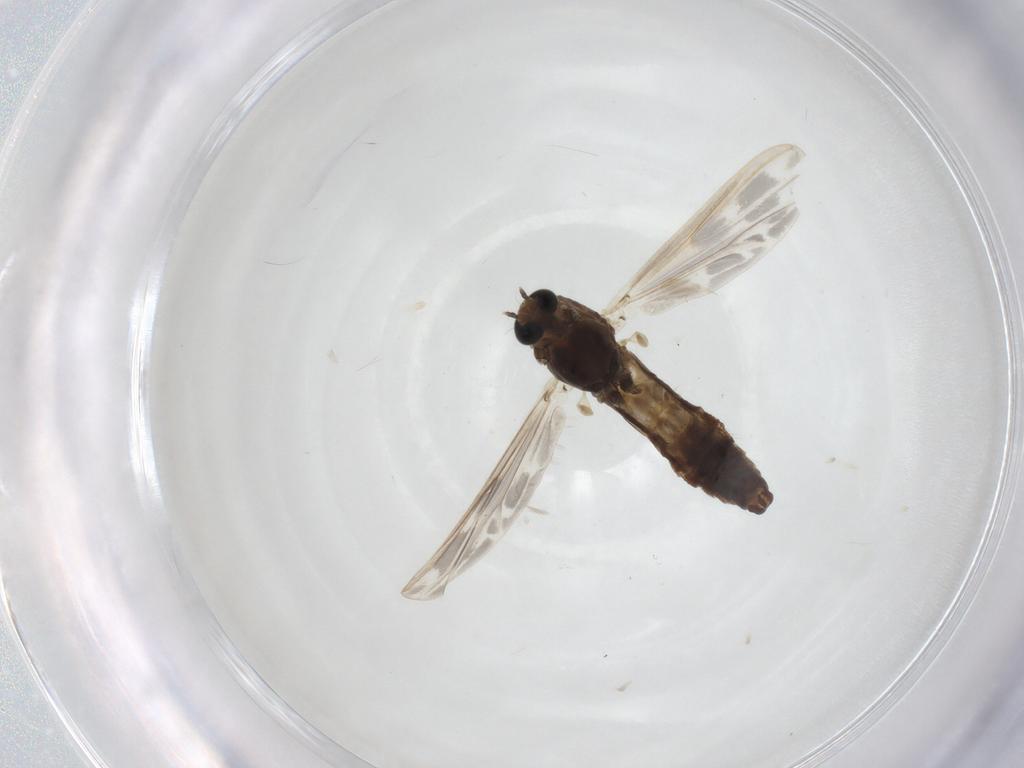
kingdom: Animalia
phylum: Arthropoda
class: Insecta
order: Diptera
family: Chironomidae
